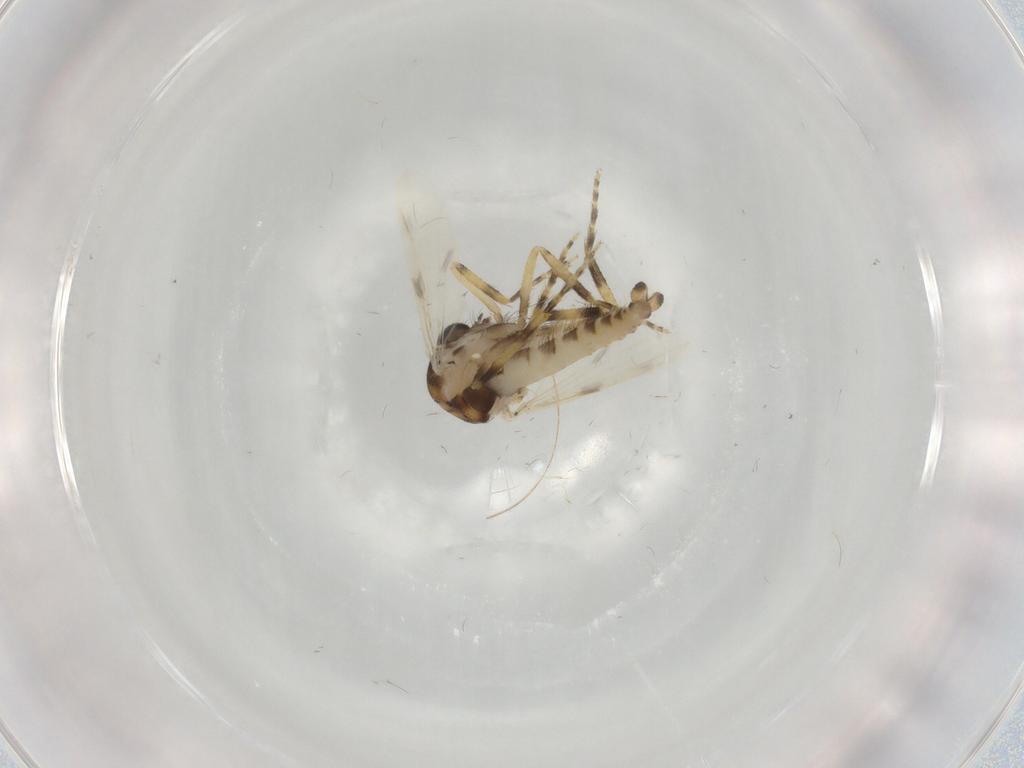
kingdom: Animalia
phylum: Arthropoda
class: Insecta
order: Diptera
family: Ceratopogonidae
